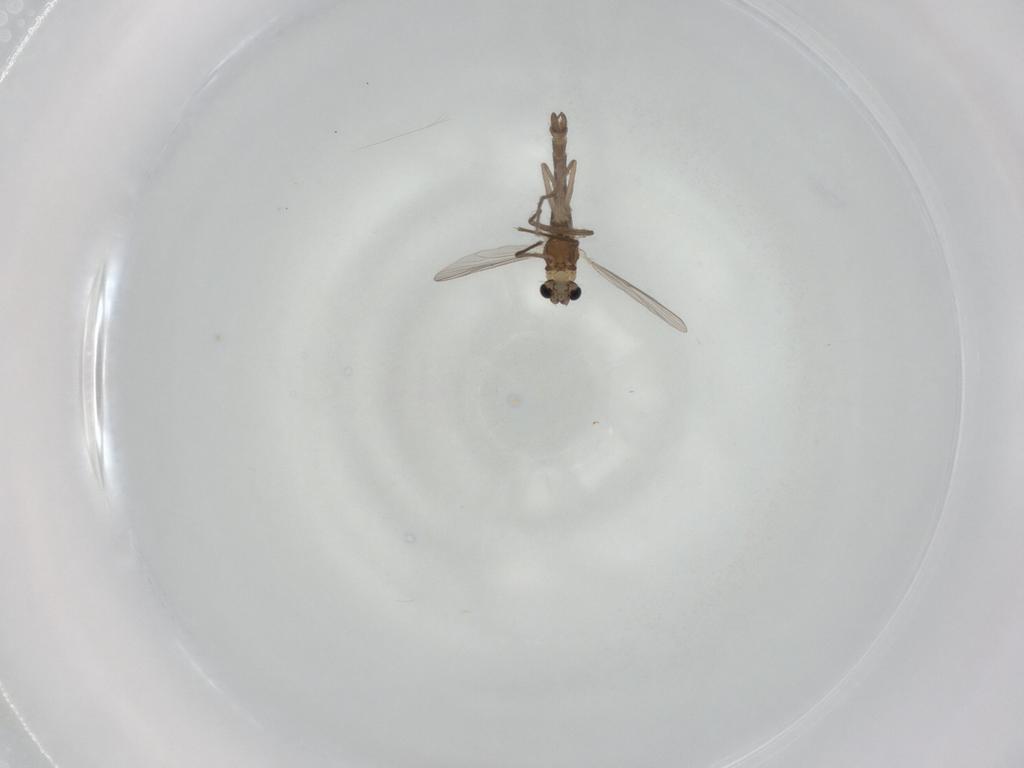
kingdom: Animalia
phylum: Arthropoda
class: Insecta
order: Diptera
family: Chironomidae
